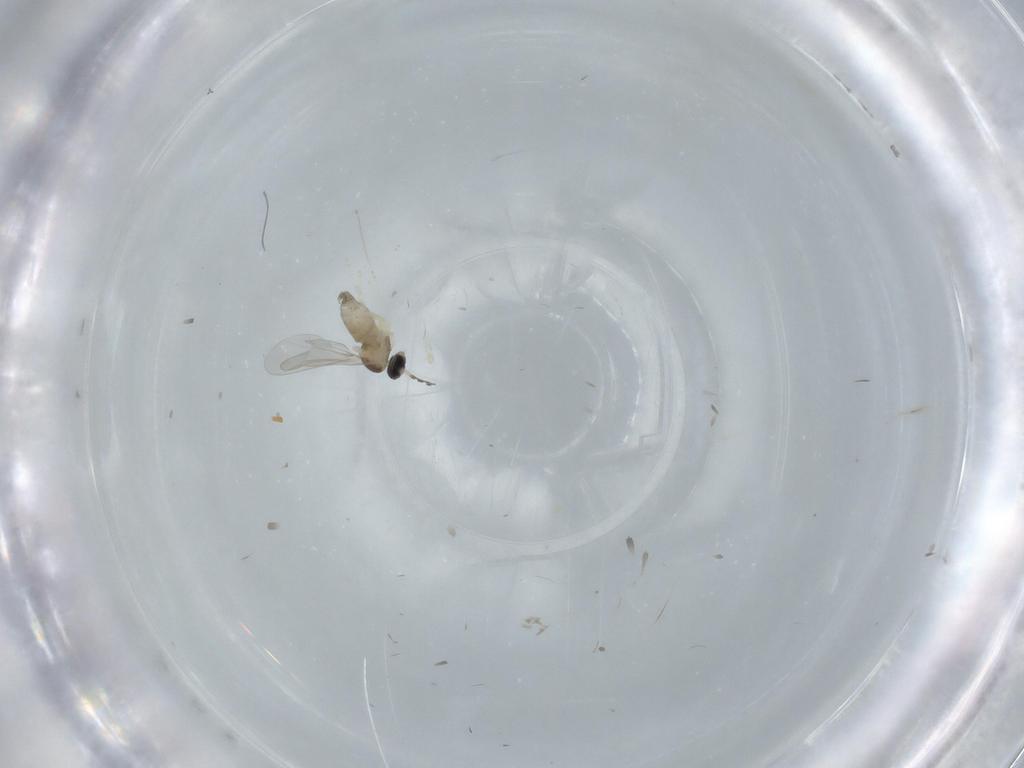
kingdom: Animalia
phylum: Arthropoda
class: Insecta
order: Diptera
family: Cecidomyiidae
